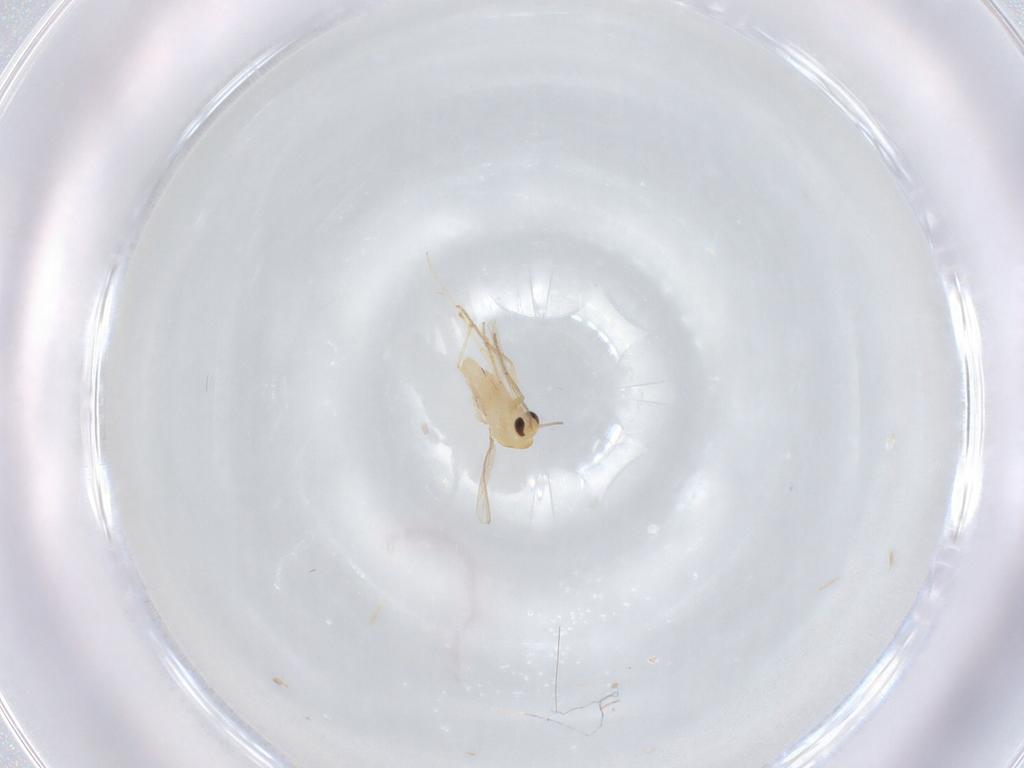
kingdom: Animalia
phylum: Arthropoda
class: Insecta
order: Diptera
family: Chironomidae
